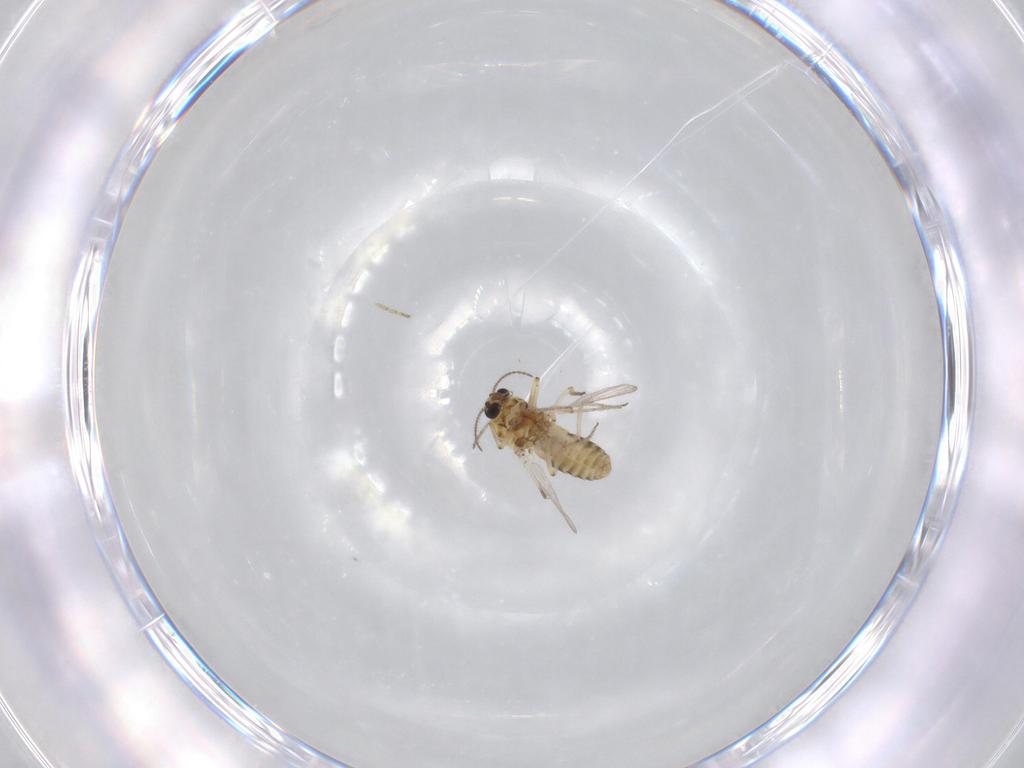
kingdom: Animalia
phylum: Arthropoda
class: Insecta
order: Diptera
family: Ceratopogonidae
